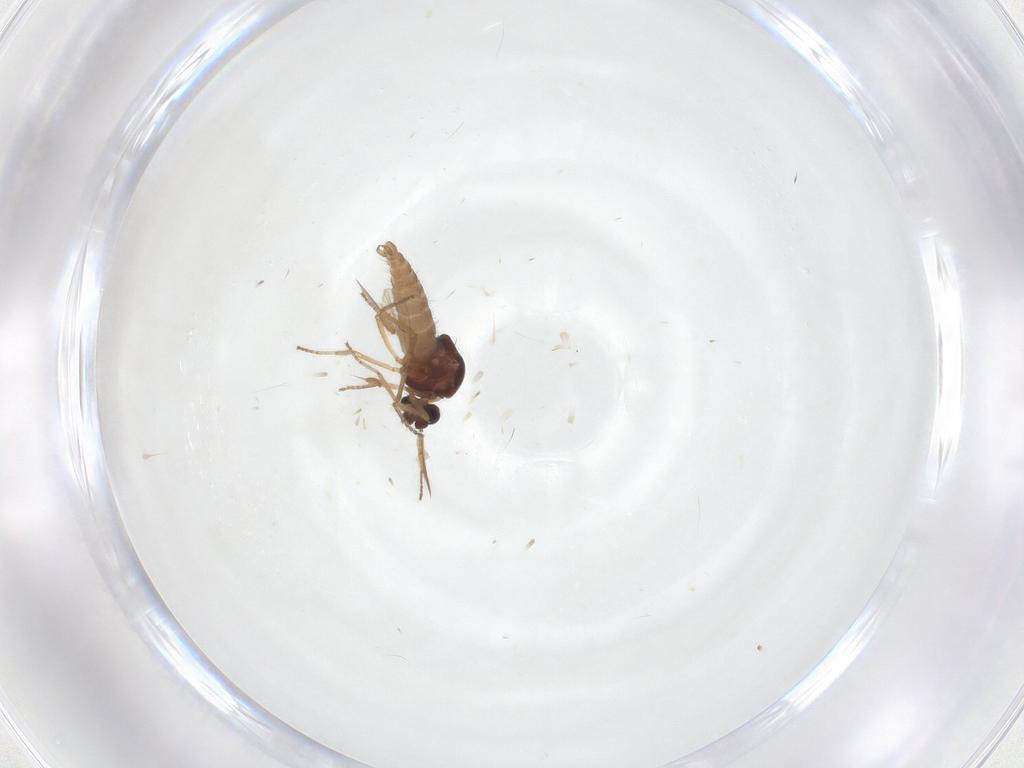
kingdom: Animalia
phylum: Arthropoda
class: Insecta
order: Diptera
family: Ceratopogonidae
